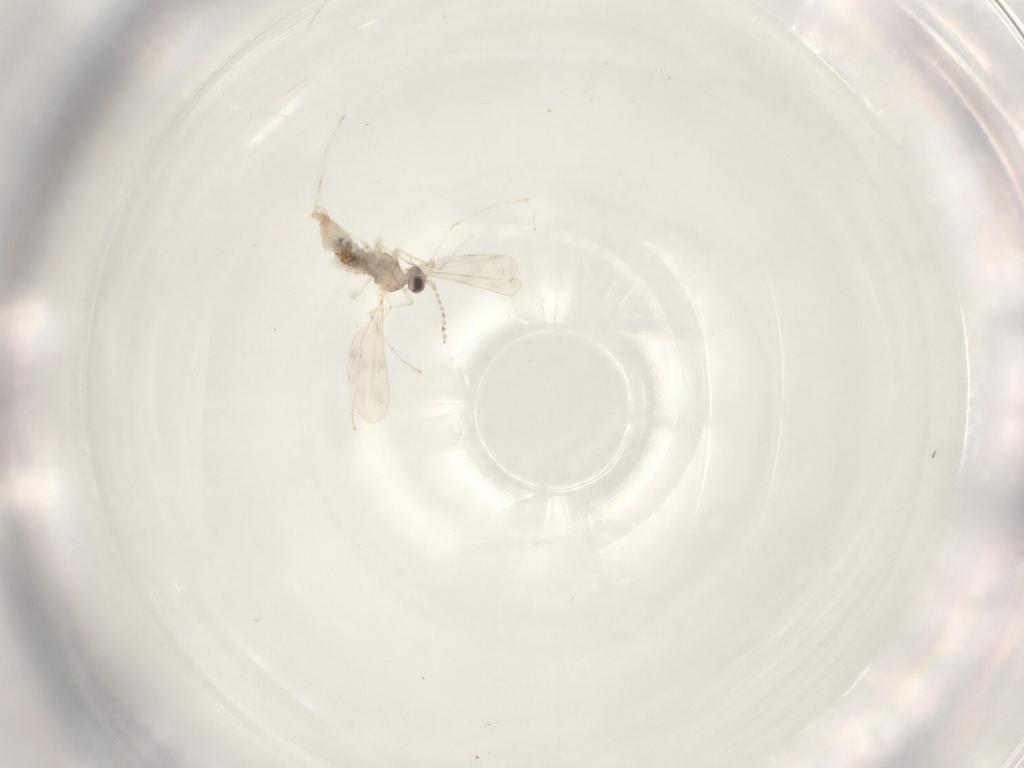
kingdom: Animalia
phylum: Arthropoda
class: Insecta
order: Diptera
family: Cecidomyiidae
